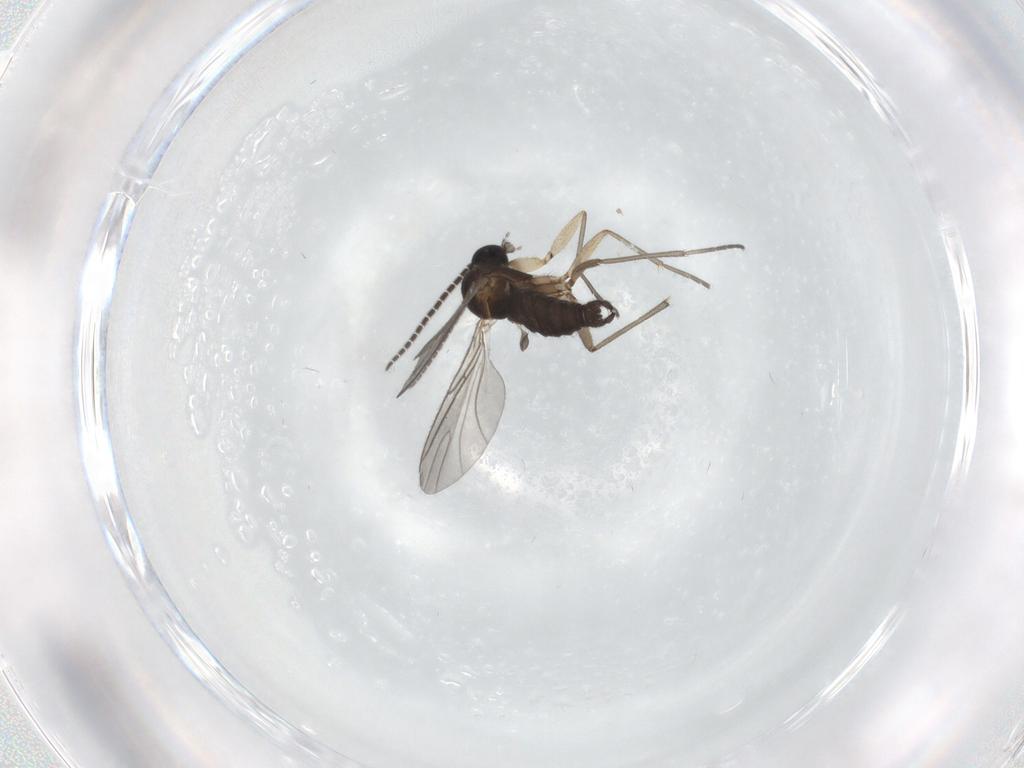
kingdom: Animalia
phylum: Arthropoda
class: Insecta
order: Diptera
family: Sciaridae
